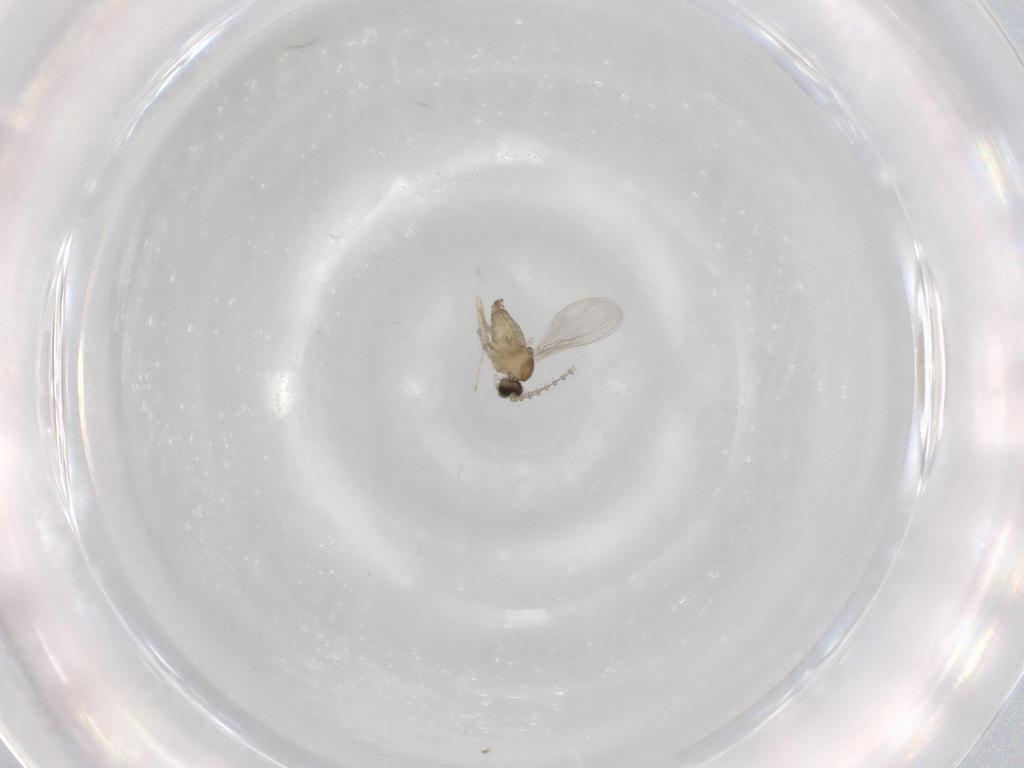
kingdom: Animalia
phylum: Arthropoda
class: Insecta
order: Diptera
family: Cecidomyiidae
